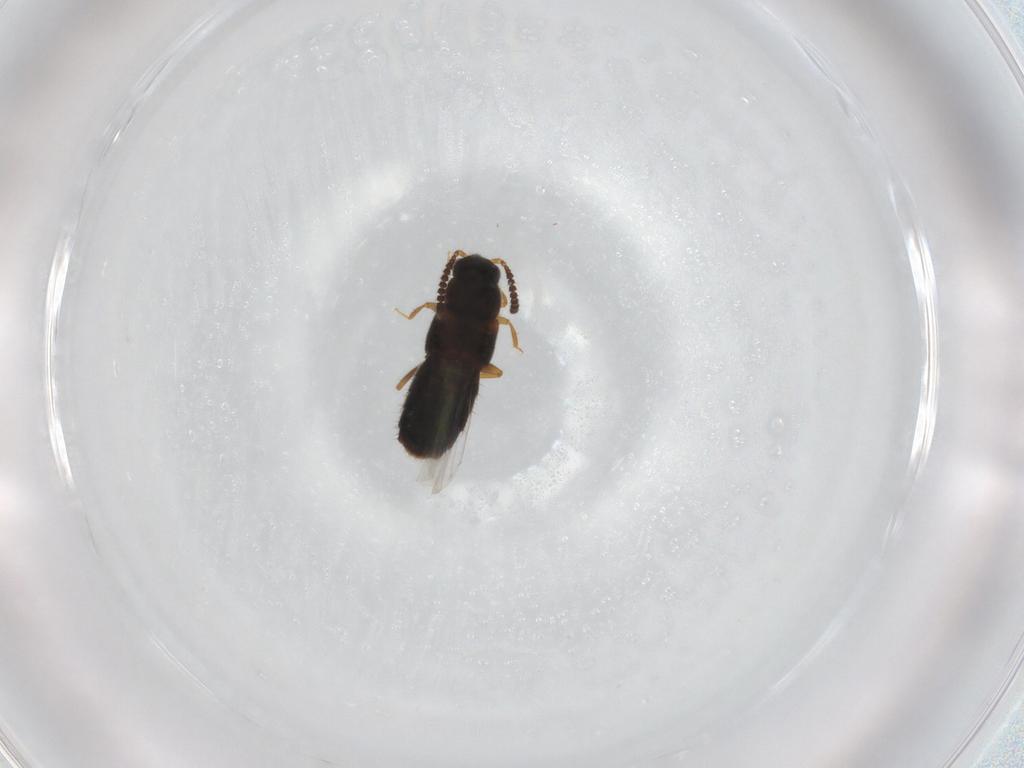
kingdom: Animalia
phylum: Arthropoda
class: Insecta
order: Coleoptera
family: Staphylinidae
